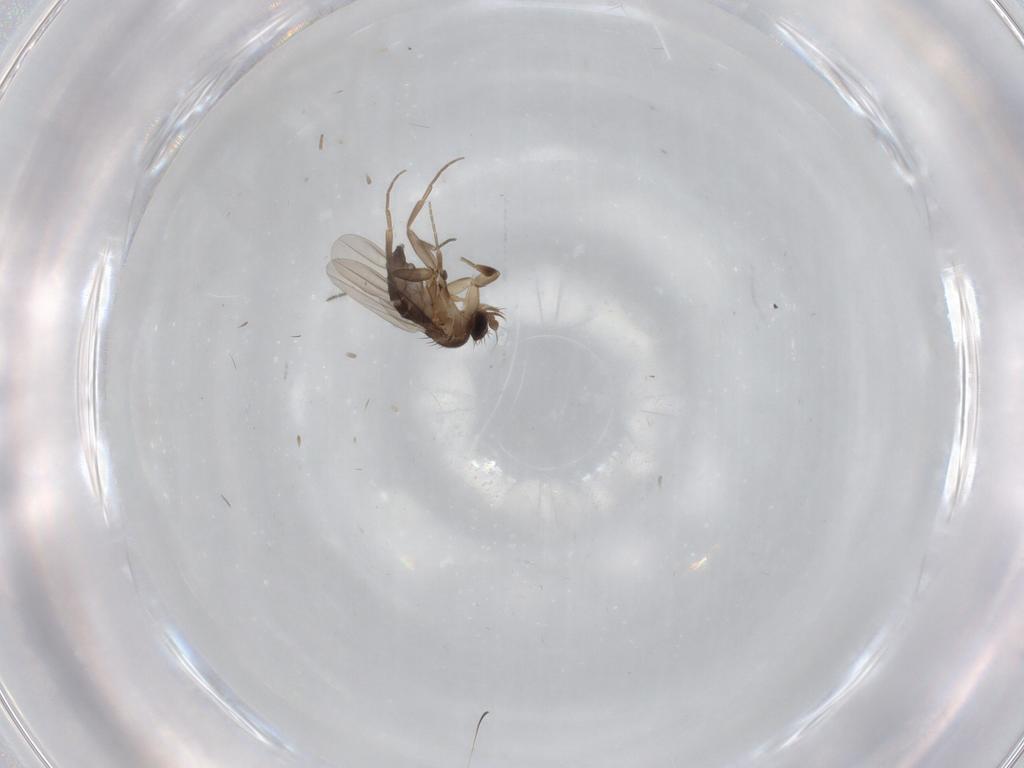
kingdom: Animalia
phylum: Arthropoda
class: Insecta
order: Diptera
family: Phoridae
